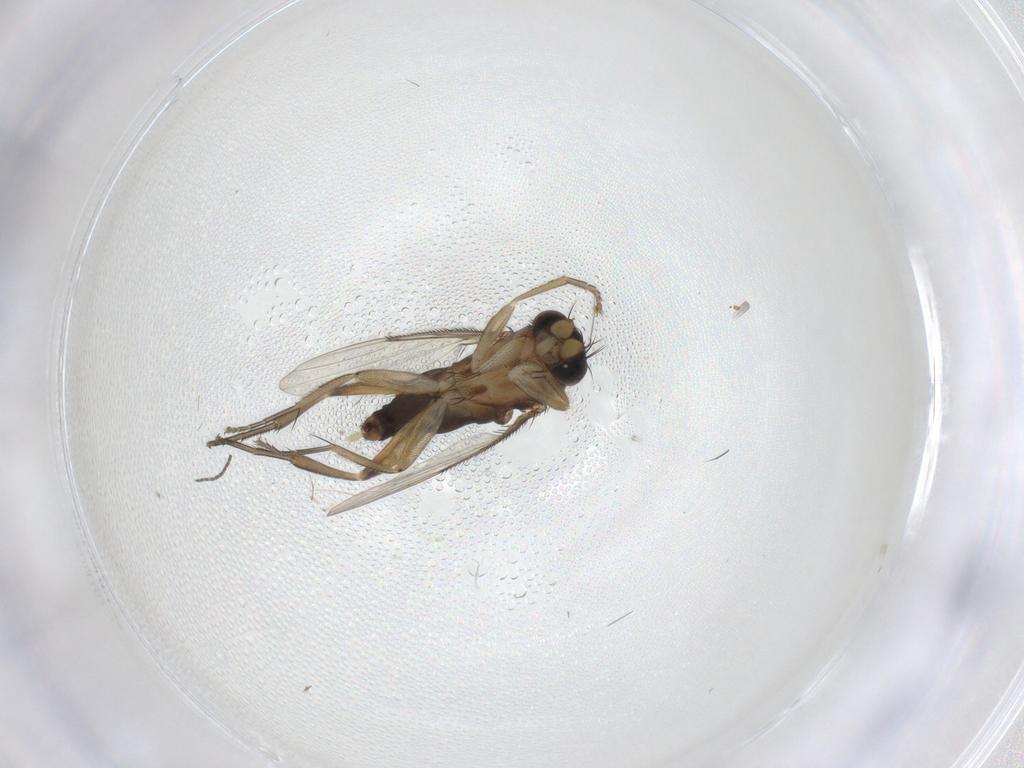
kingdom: Animalia
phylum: Arthropoda
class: Insecta
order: Diptera
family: Phoridae
